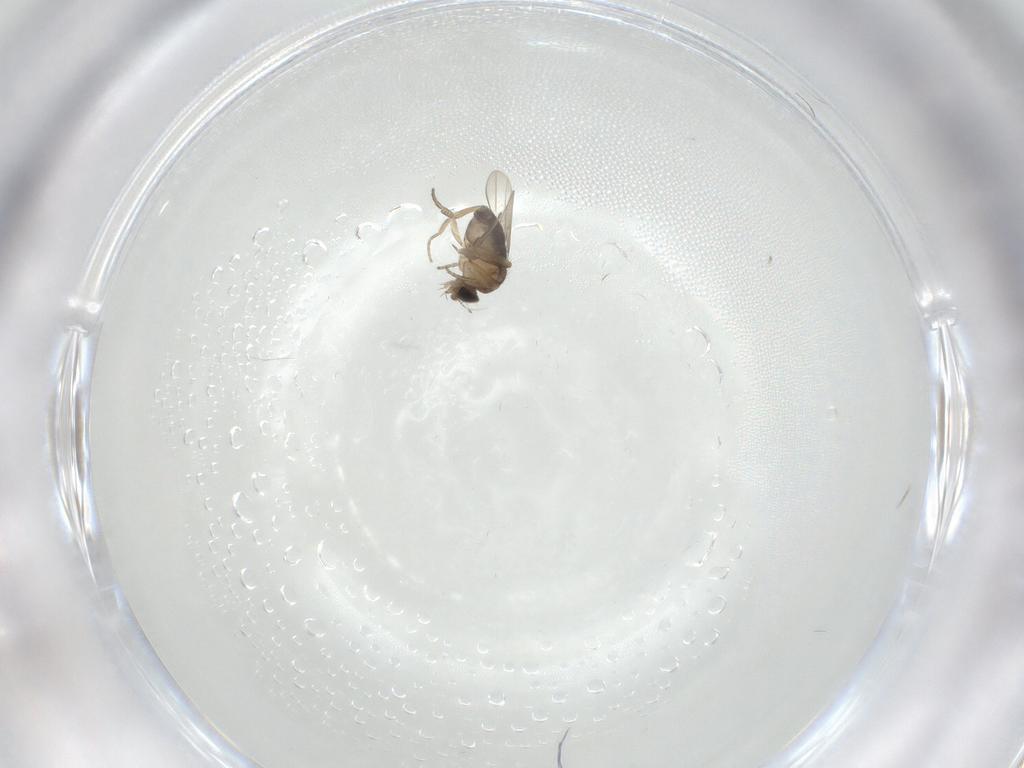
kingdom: Animalia
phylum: Arthropoda
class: Insecta
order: Diptera
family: Phoridae
